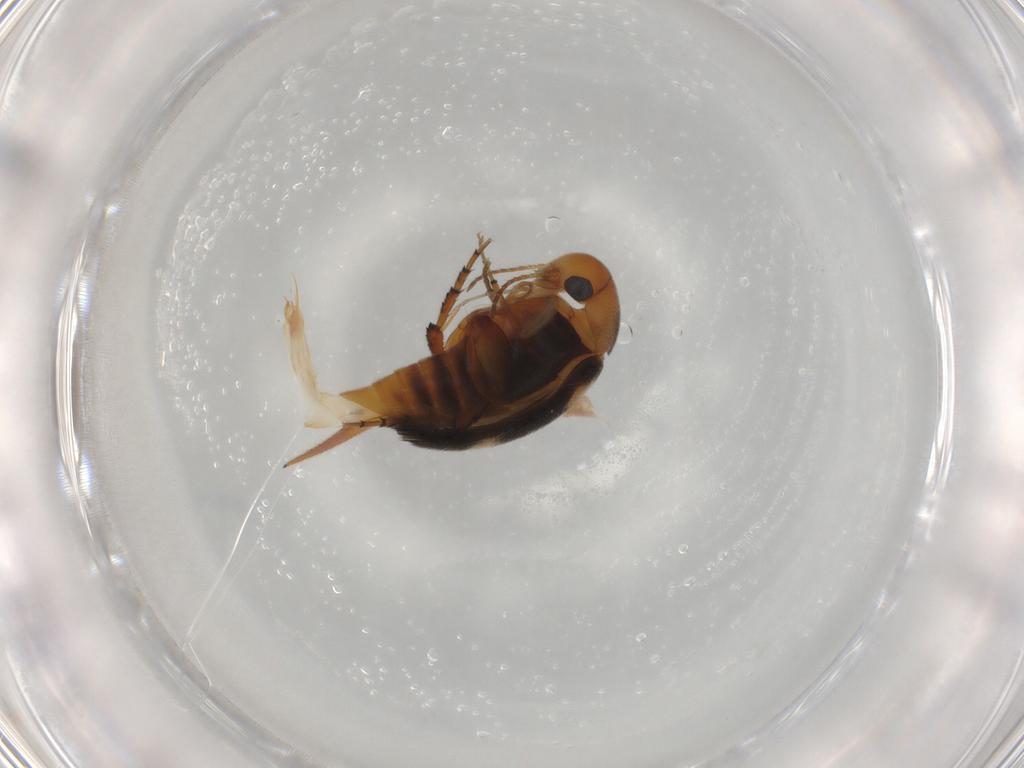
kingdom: Animalia
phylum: Arthropoda
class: Insecta
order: Coleoptera
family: Mordellidae
